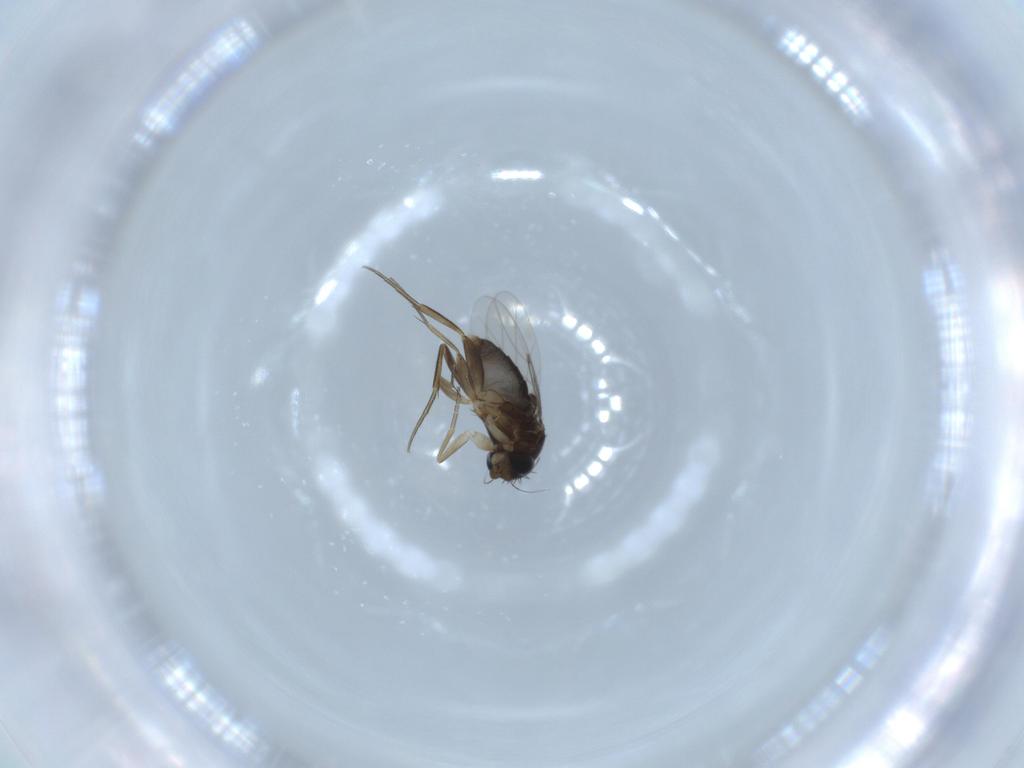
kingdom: Animalia
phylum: Arthropoda
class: Insecta
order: Diptera
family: Phoridae
